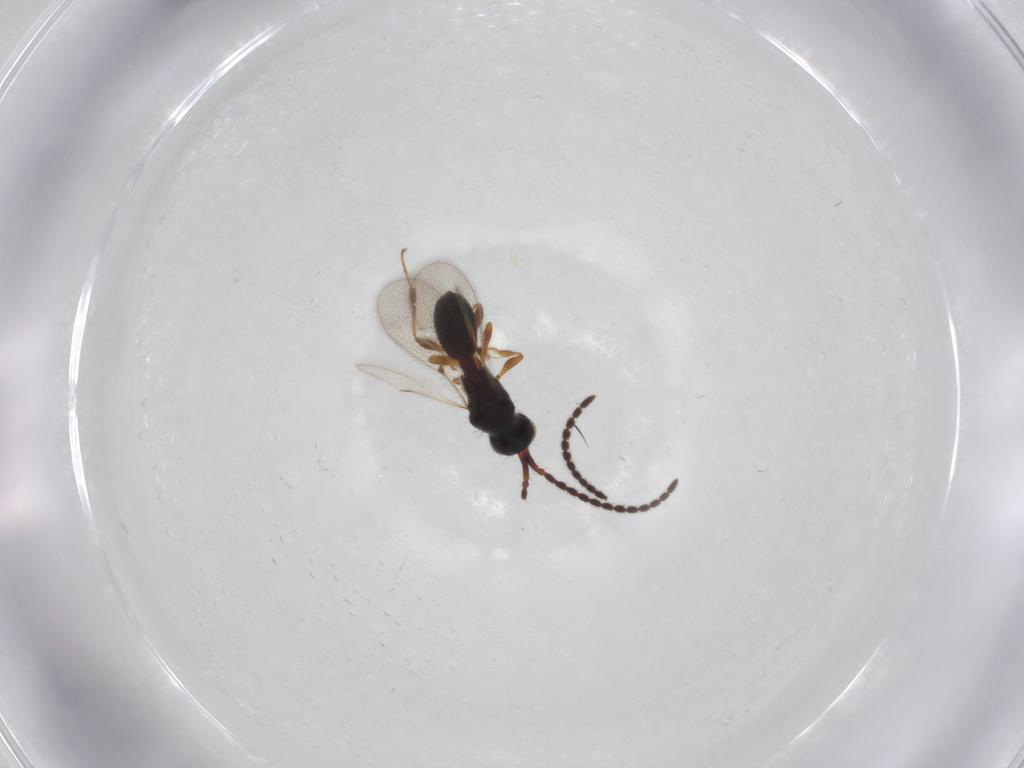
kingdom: Animalia
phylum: Arthropoda
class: Insecta
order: Hymenoptera
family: Diapriidae
